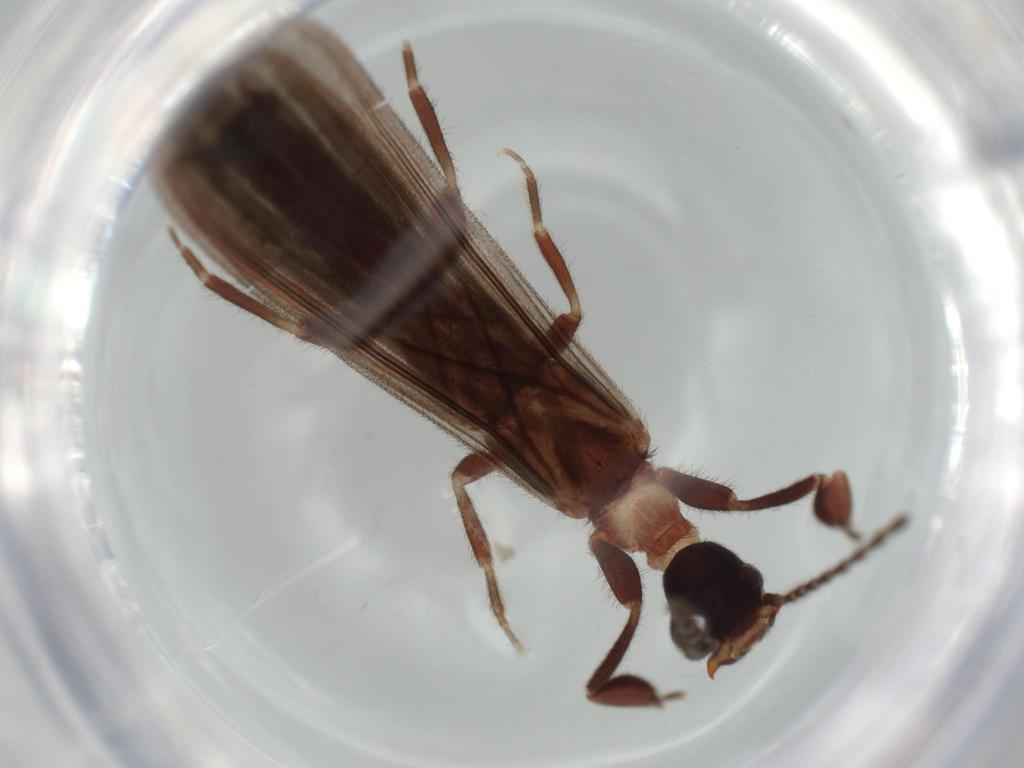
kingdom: Animalia
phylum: Arthropoda
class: Insecta
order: Embioptera
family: Anisembiidae
